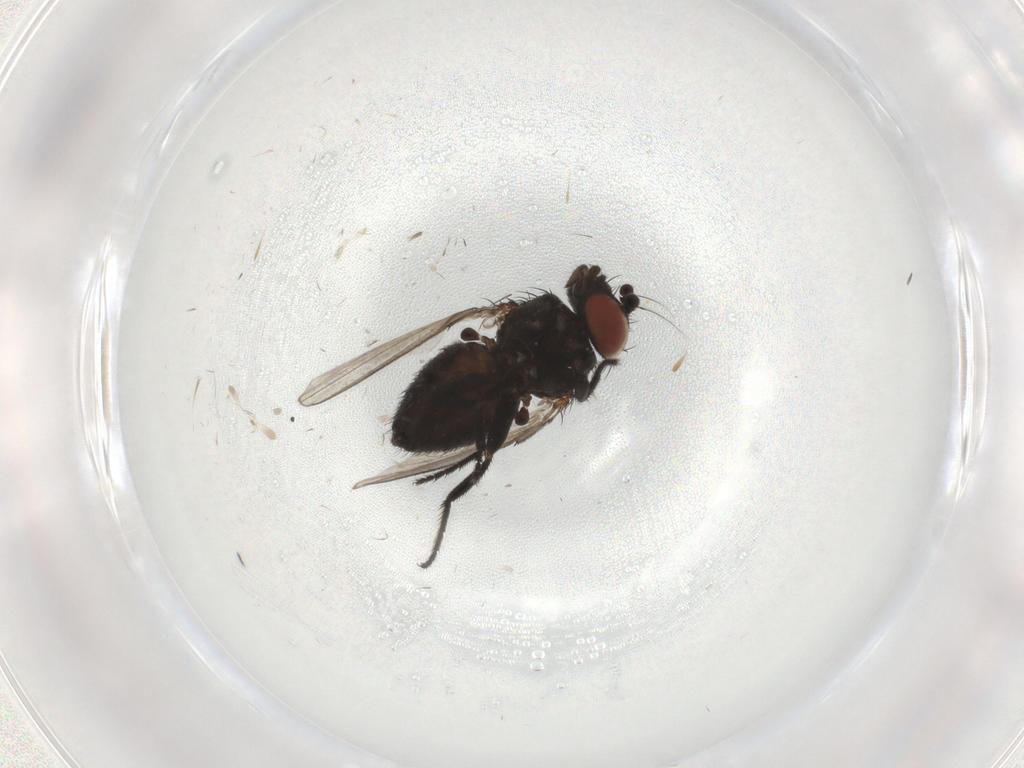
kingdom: Animalia
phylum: Arthropoda
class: Insecta
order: Diptera
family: Milichiidae
